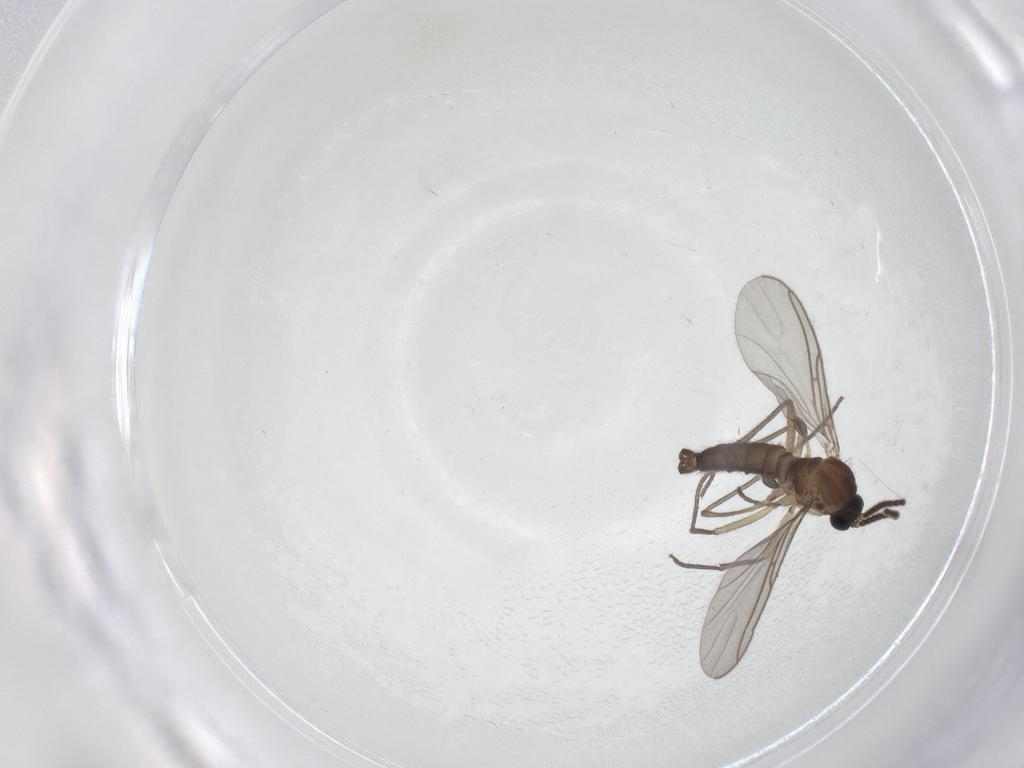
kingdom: Animalia
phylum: Arthropoda
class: Insecta
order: Diptera
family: Sciaridae
